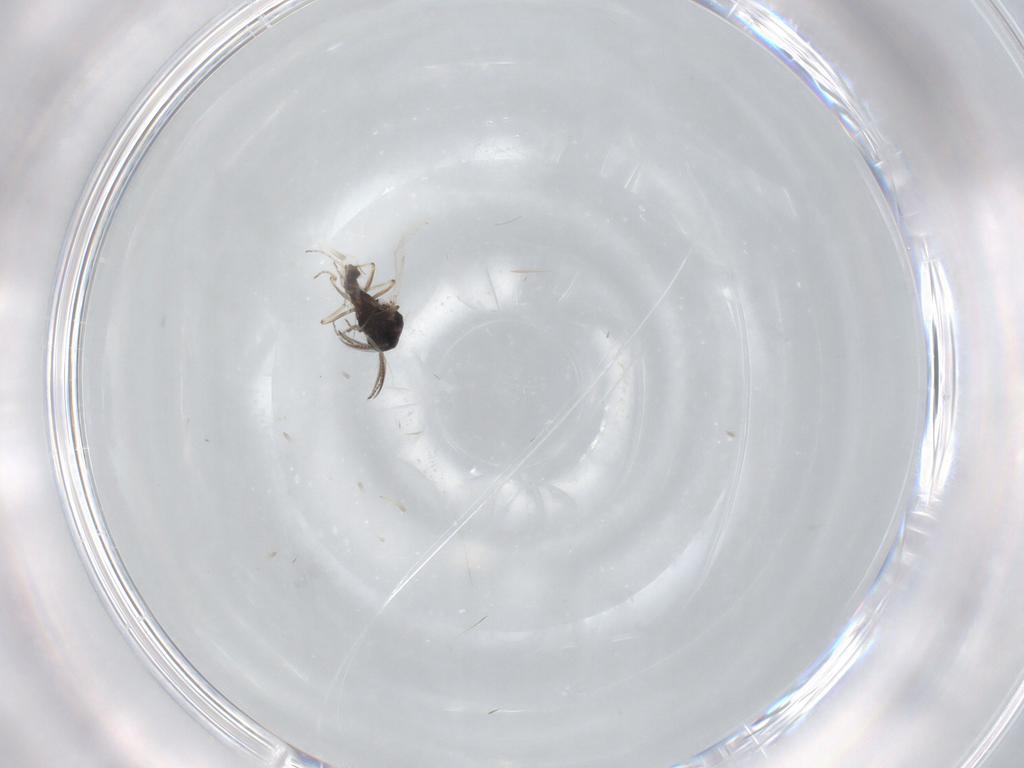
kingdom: Animalia
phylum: Arthropoda
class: Insecta
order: Diptera
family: Ceratopogonidae
